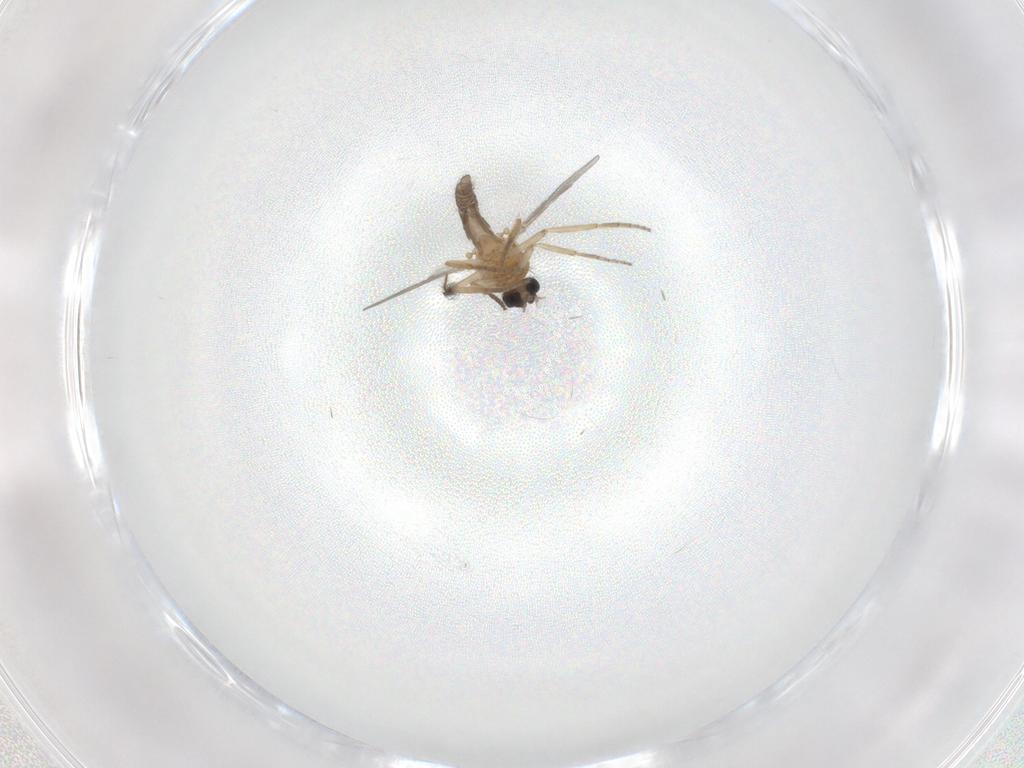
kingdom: Animalia
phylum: Arthropoda
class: Insecta
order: Diptera
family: Ceratopogonidae
